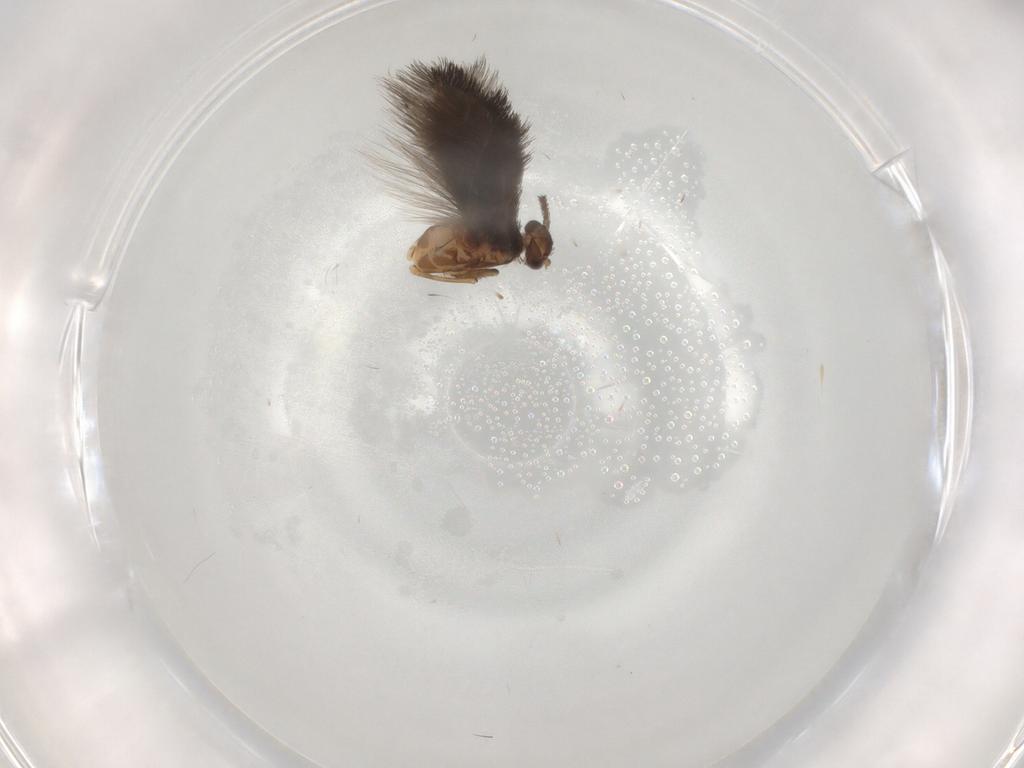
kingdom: Animalia
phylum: Arthropoda
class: Insecta
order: Trichoptera
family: Hydroptilidae
